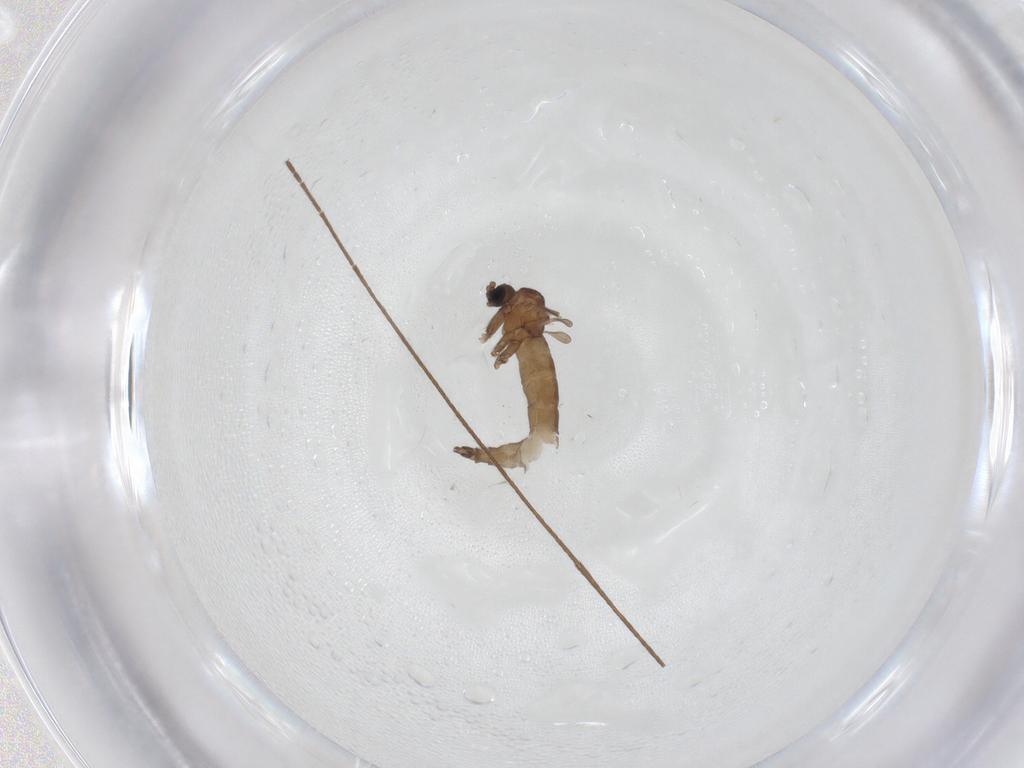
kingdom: Animalia
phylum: Arthropoda
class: Insecta
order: Diptera
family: Sciaridae
